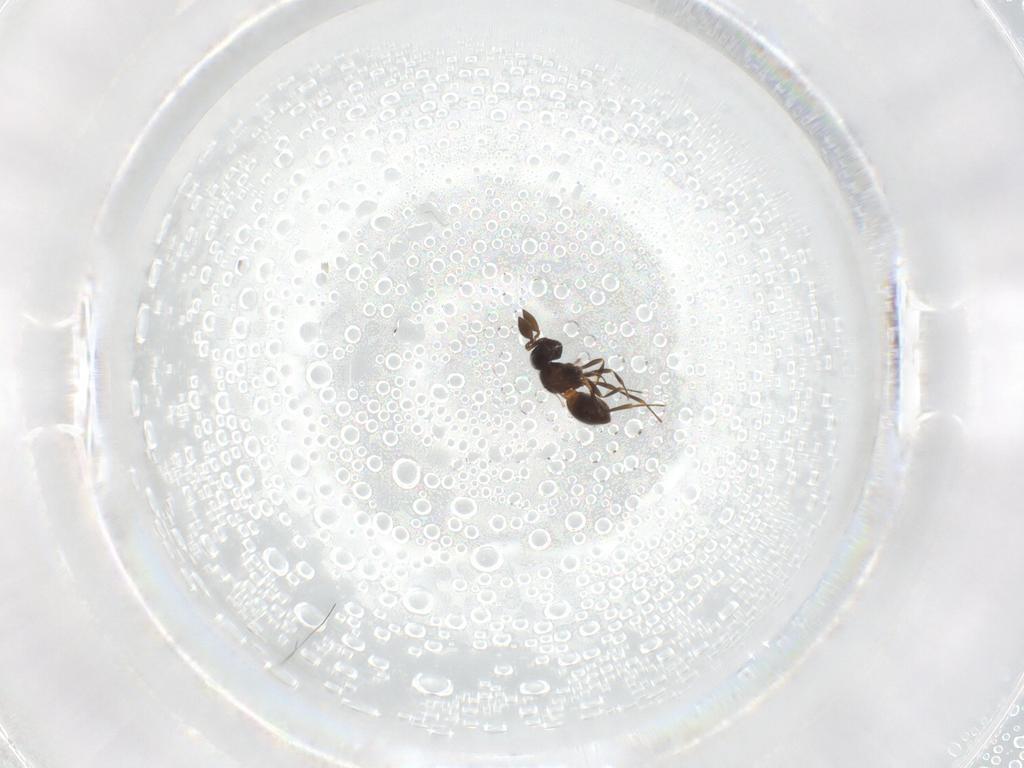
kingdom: Animalia
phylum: Arthropoda
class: Insecta
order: Hymenoptera
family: Scelionidae
